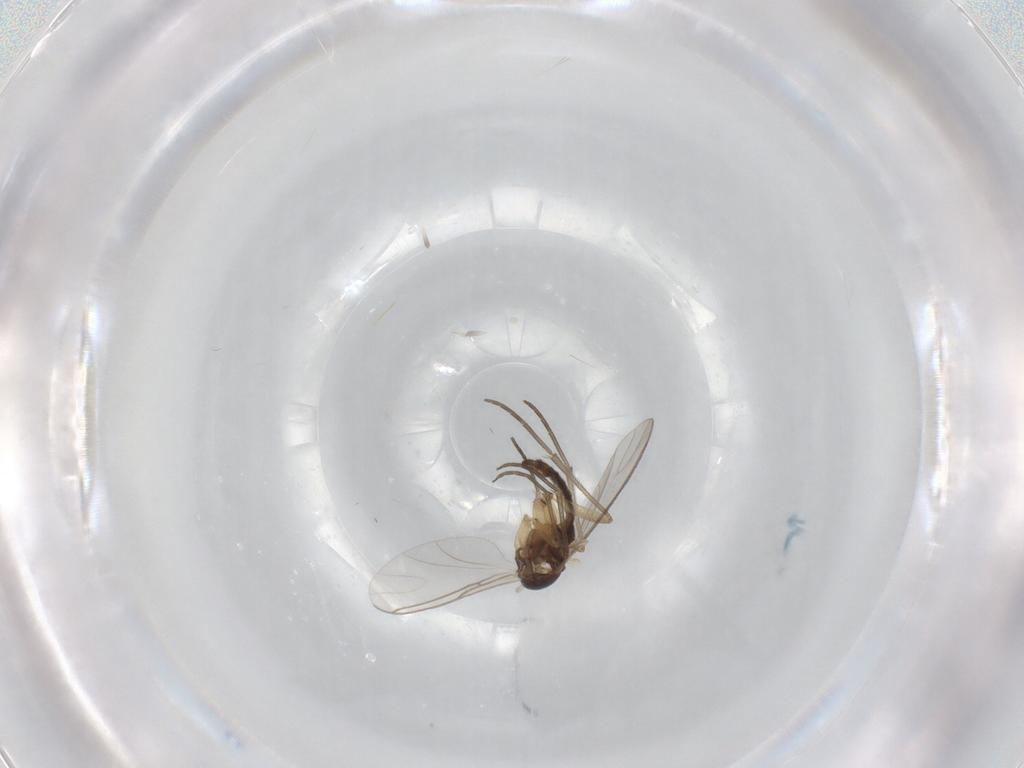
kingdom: Animalia
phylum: Arthropoda
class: Insecta
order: Diptera
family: Sciaridae
